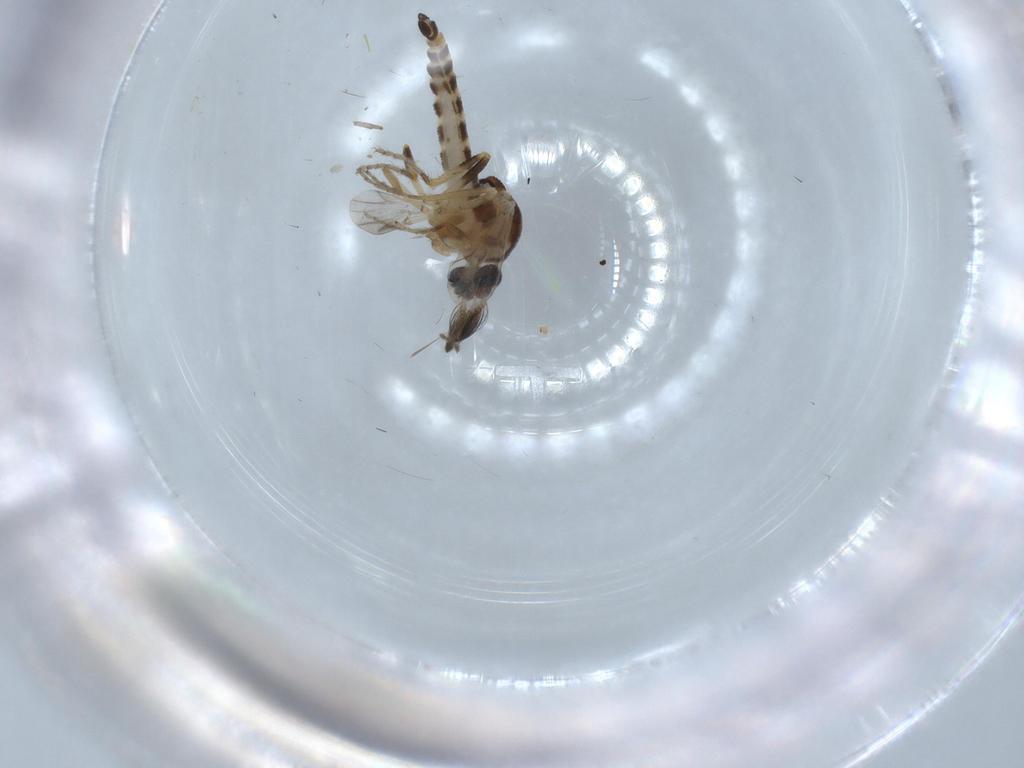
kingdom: Animalia
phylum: Arthropoda
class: Insecta
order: Diptera
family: Ceratopogonidae
